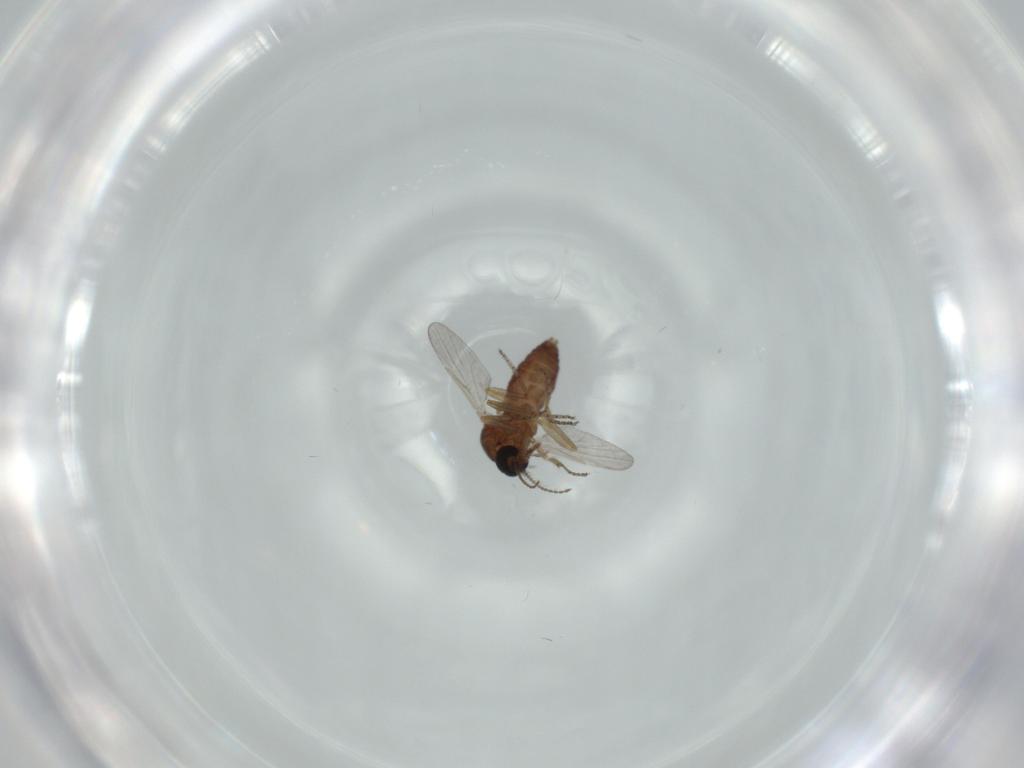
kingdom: Animalia
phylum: Arthropoda
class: Insecta
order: Diptera
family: Ceratopogonidae
